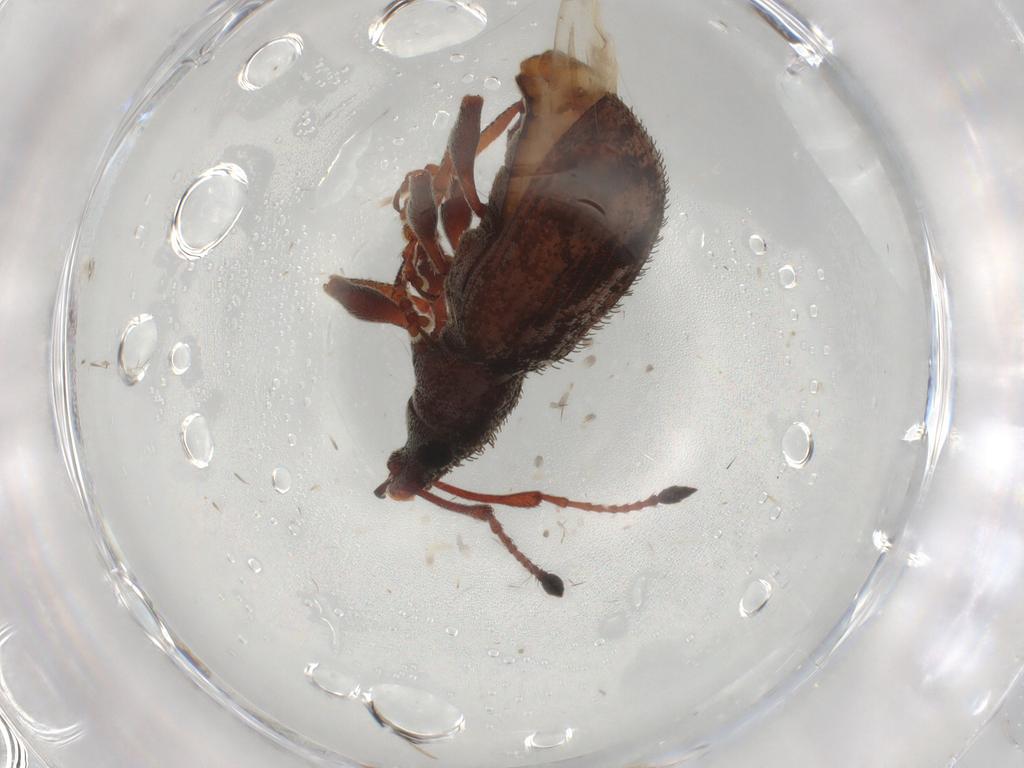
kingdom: Animalia
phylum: Arthropoda
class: Insecta
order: Coleoptera
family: Curculionidae
